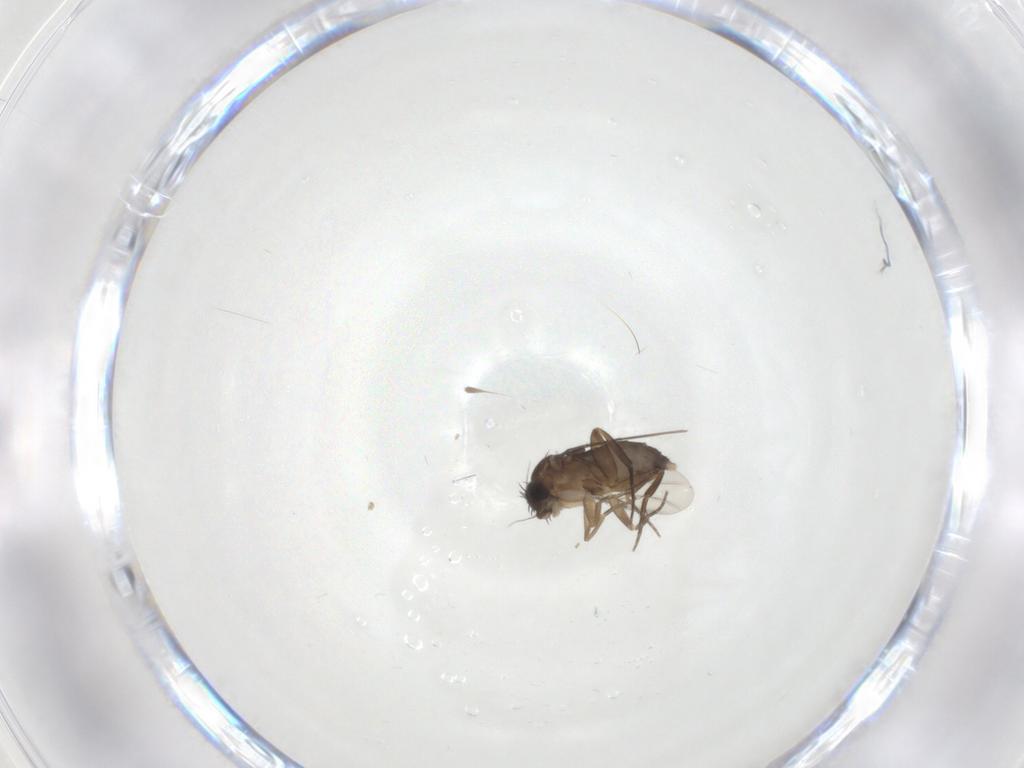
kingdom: Animalia
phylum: Arthropoda
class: Insecta
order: Diptera
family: Phoridae
